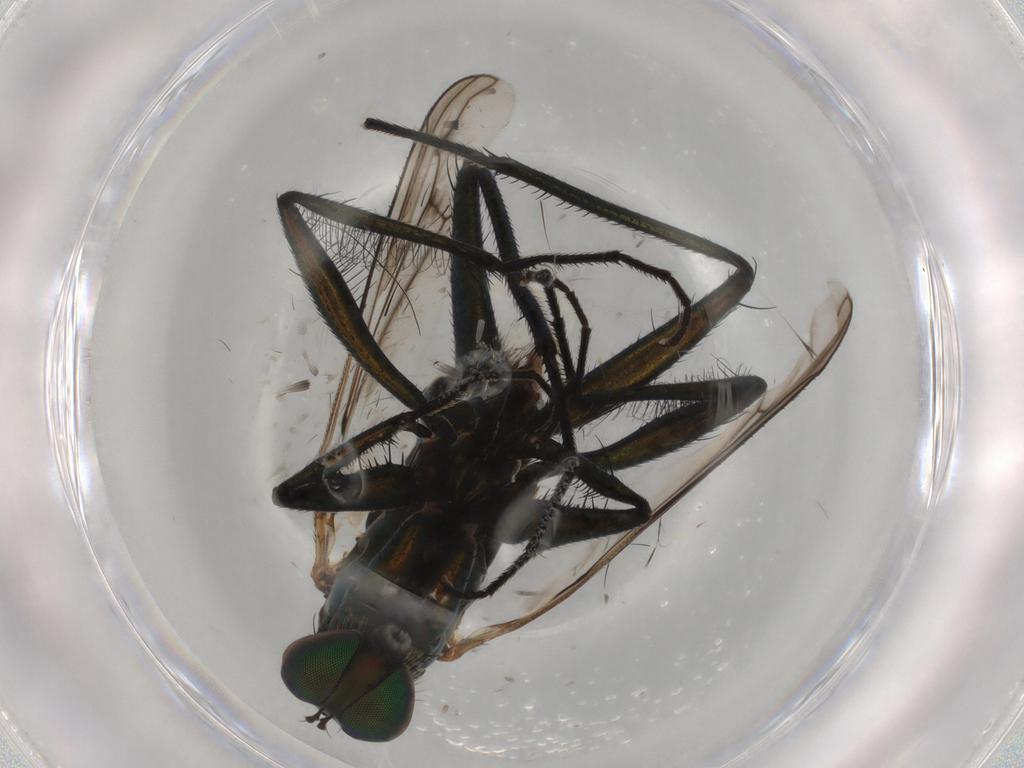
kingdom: Animalia
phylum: Arthropoda
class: Insecta
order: Diptera
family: Dolichopodidae
